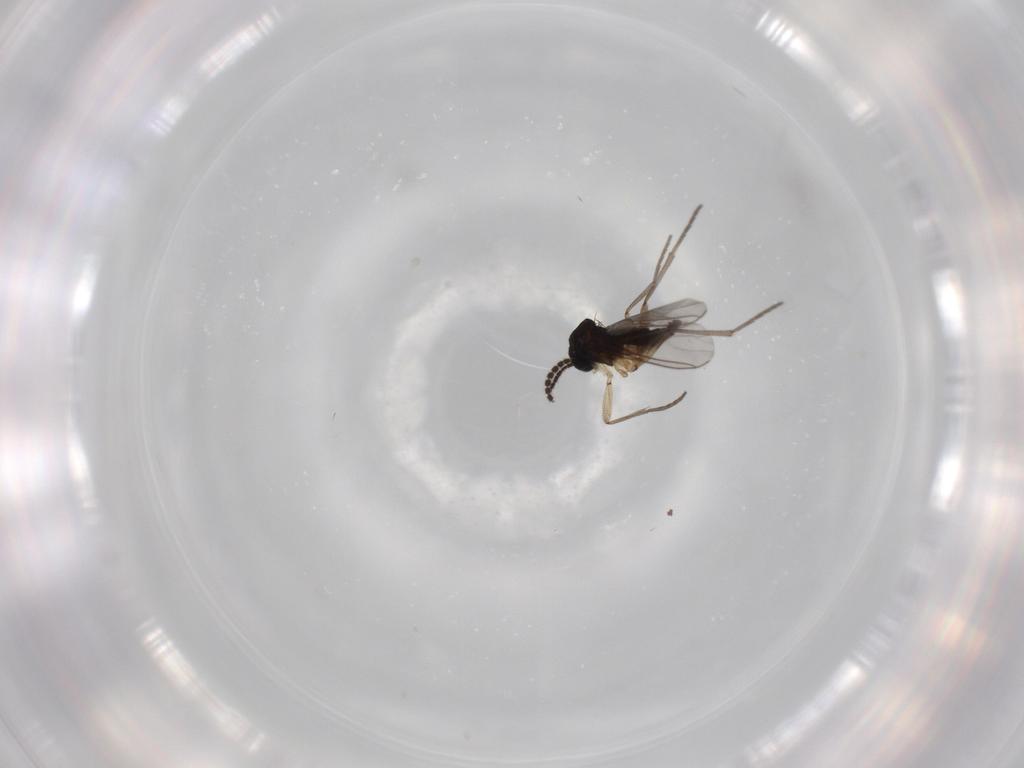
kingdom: Animalia
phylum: Arthropoda
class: Insecta
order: Diptera
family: Sciaridae
